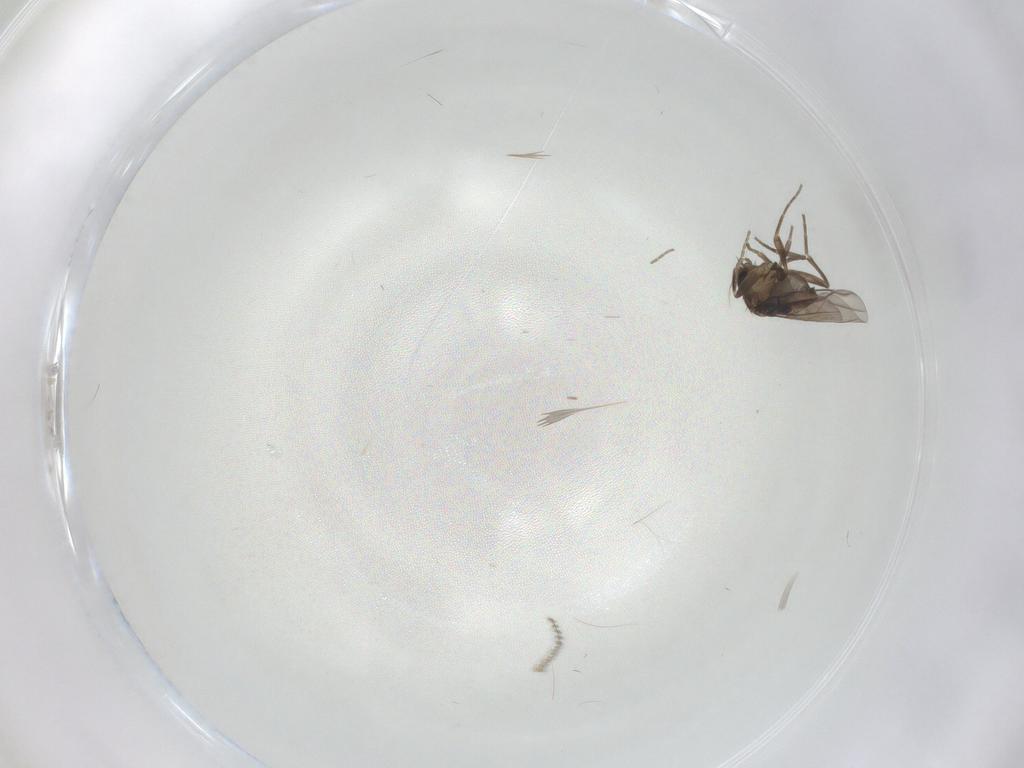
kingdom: Animalia
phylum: Arthropoda
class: Insecta
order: Diptera
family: Phoridae
